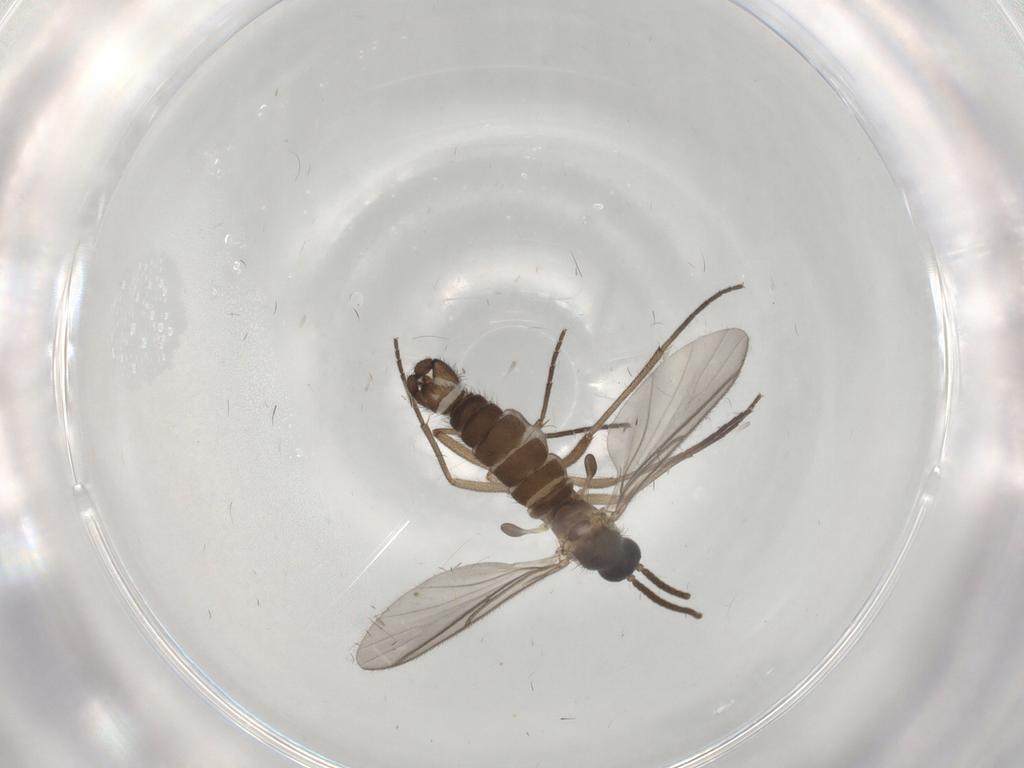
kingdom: Animalia
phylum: Arthropoda
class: Insecta
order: Diptera
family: Sciaridae
